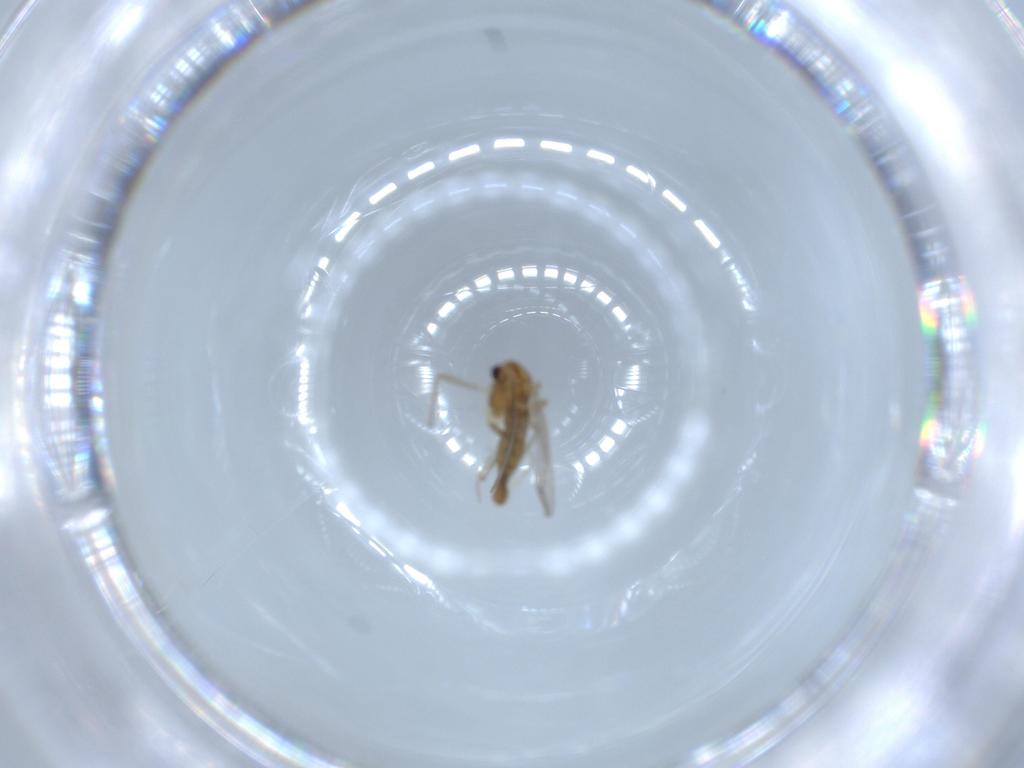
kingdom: Animalia
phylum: Arthropoda
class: Insecta
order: Diptera
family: Chironomidae
